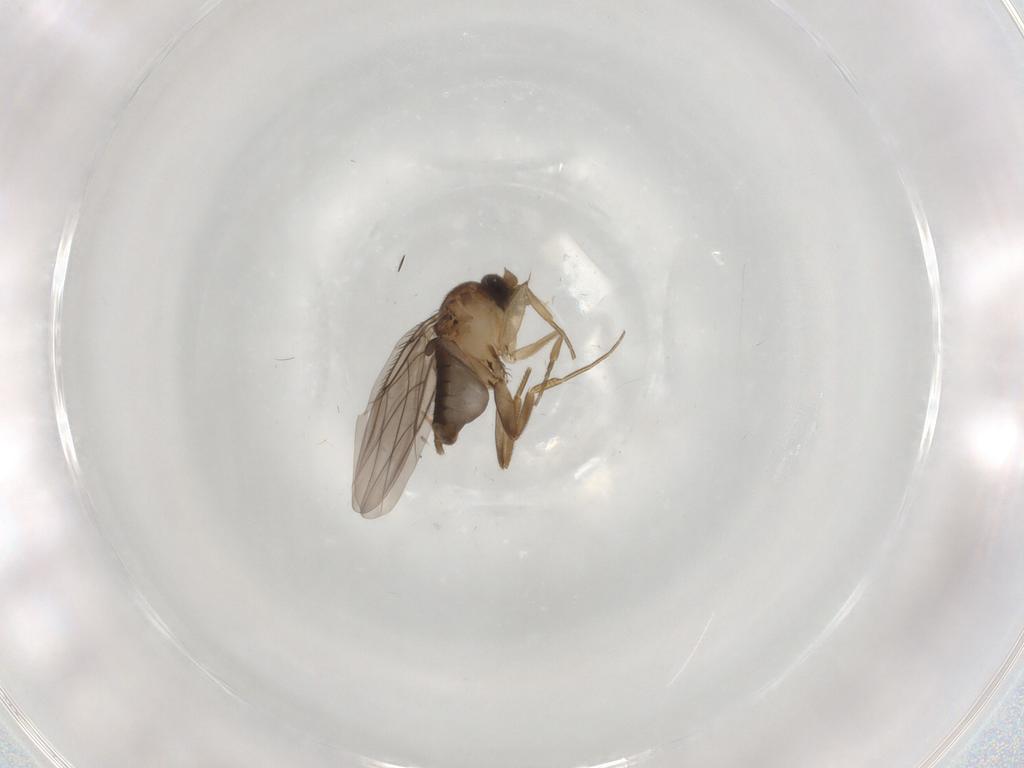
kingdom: Animalia
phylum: Arthropoda
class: Insecta
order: Diptera
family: Phoridae
